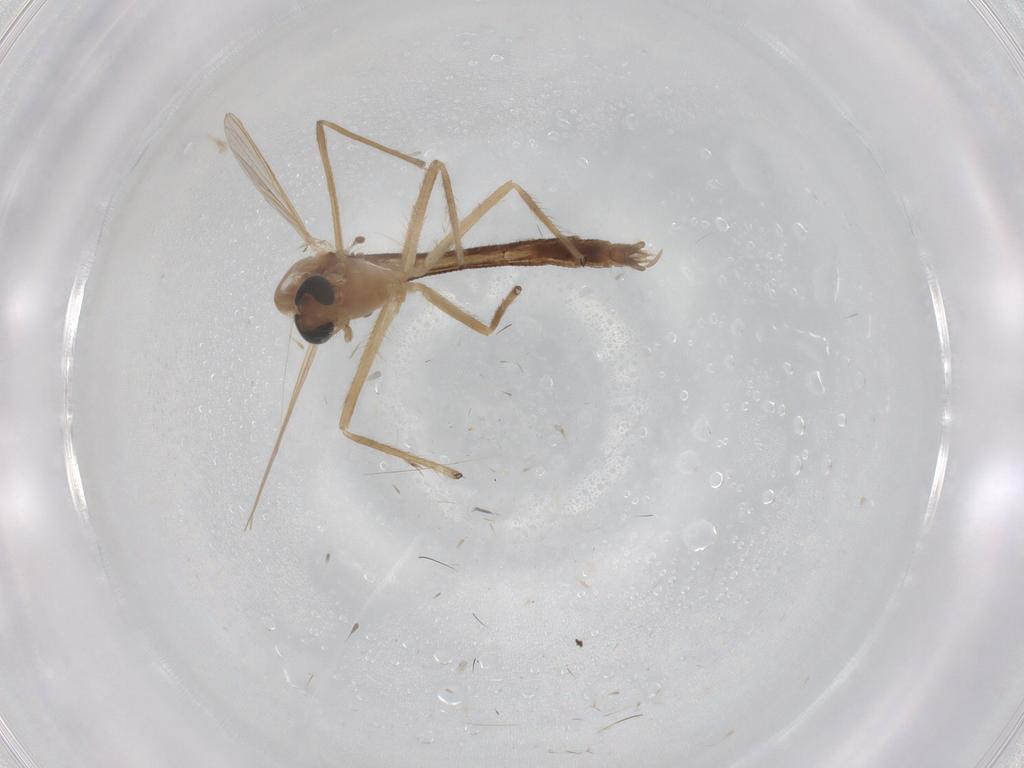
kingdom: Animalia
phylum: Arthropoda
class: Insecta
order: Diptera
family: Chironomidae
